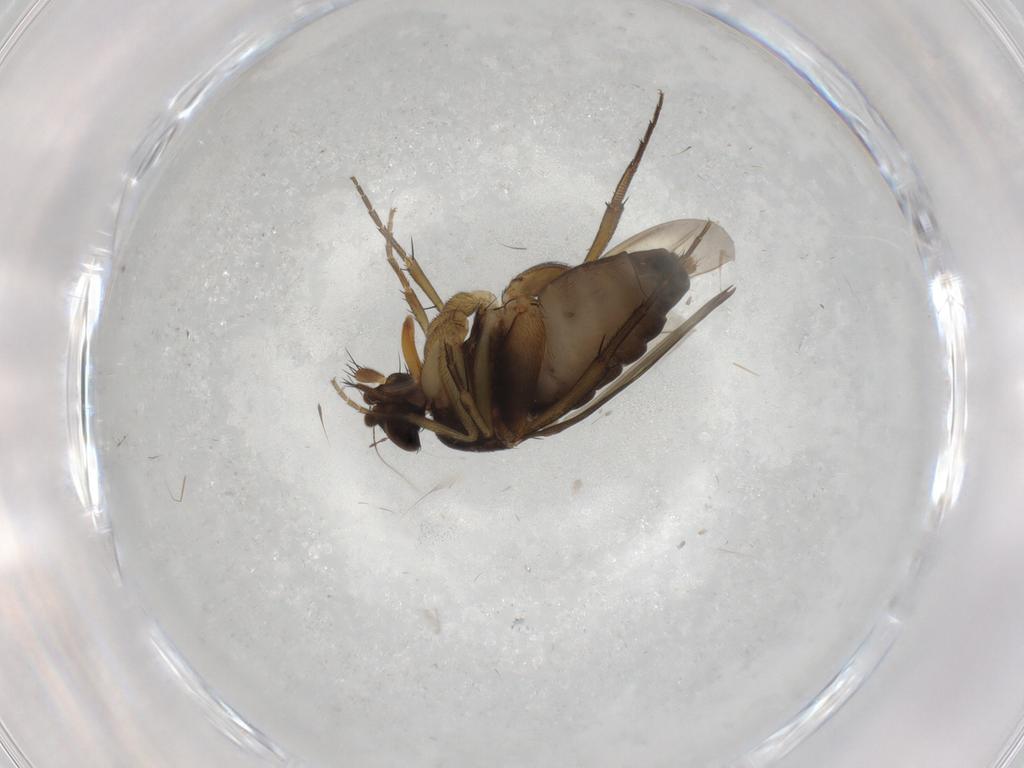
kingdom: Animalia
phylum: Arthropoda
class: Insecta
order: Diptera
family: Phoridae
